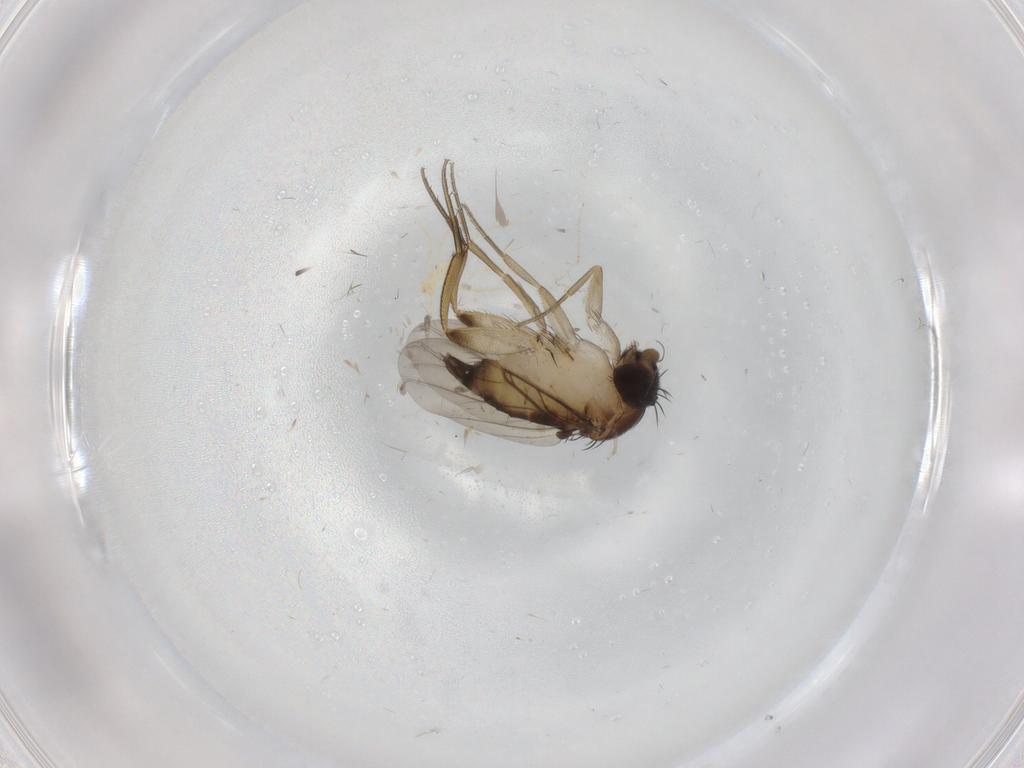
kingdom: Animalia
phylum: Arthropoda
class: Insecta
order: Diptera
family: Phoridae
